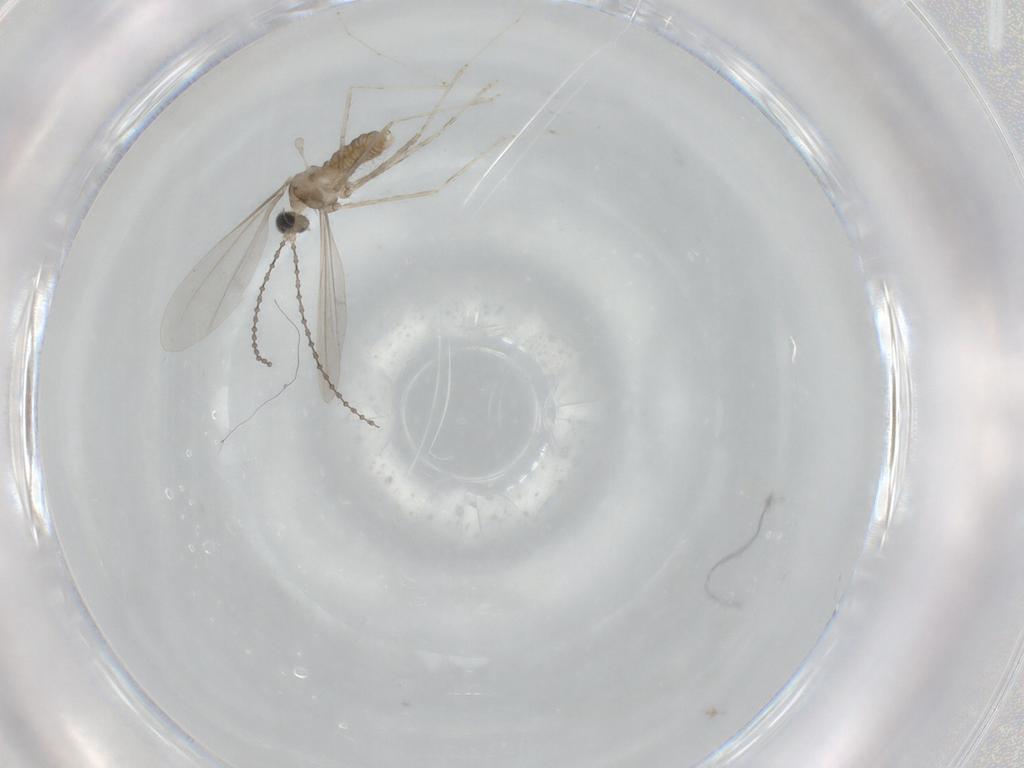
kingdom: Animalia
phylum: Arthropoda
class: Insecta
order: Diptera
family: Cecidomyiidae
